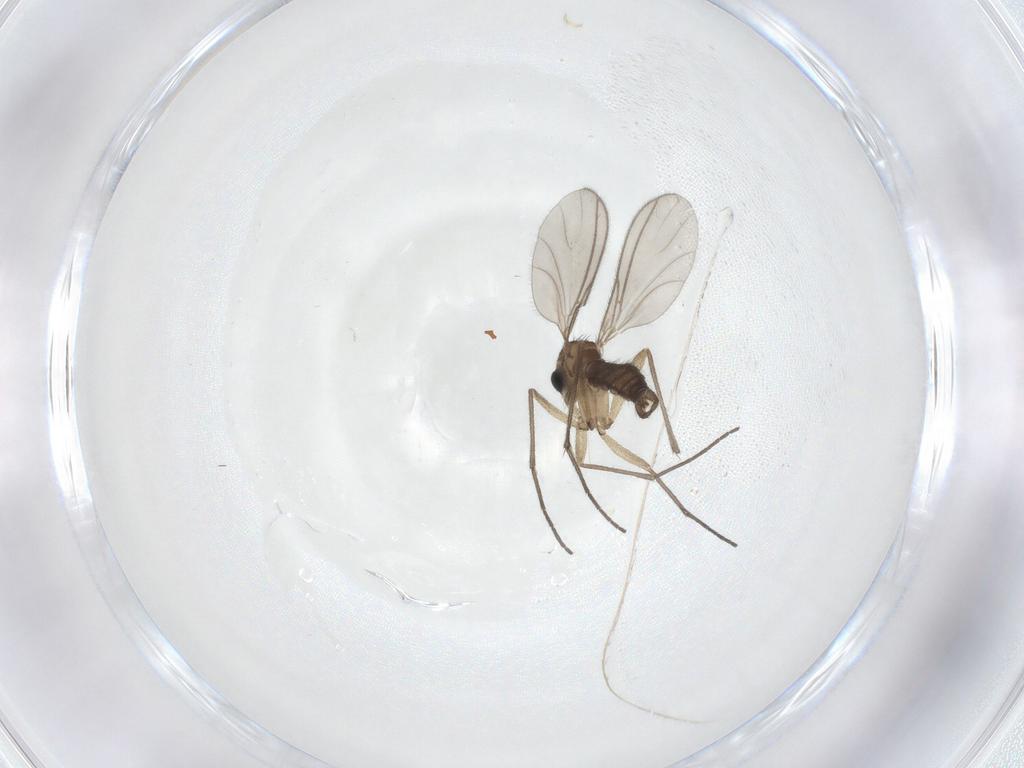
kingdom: Animalia
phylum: Arthropoda
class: Insecta
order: Diptera
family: Sciaridae
